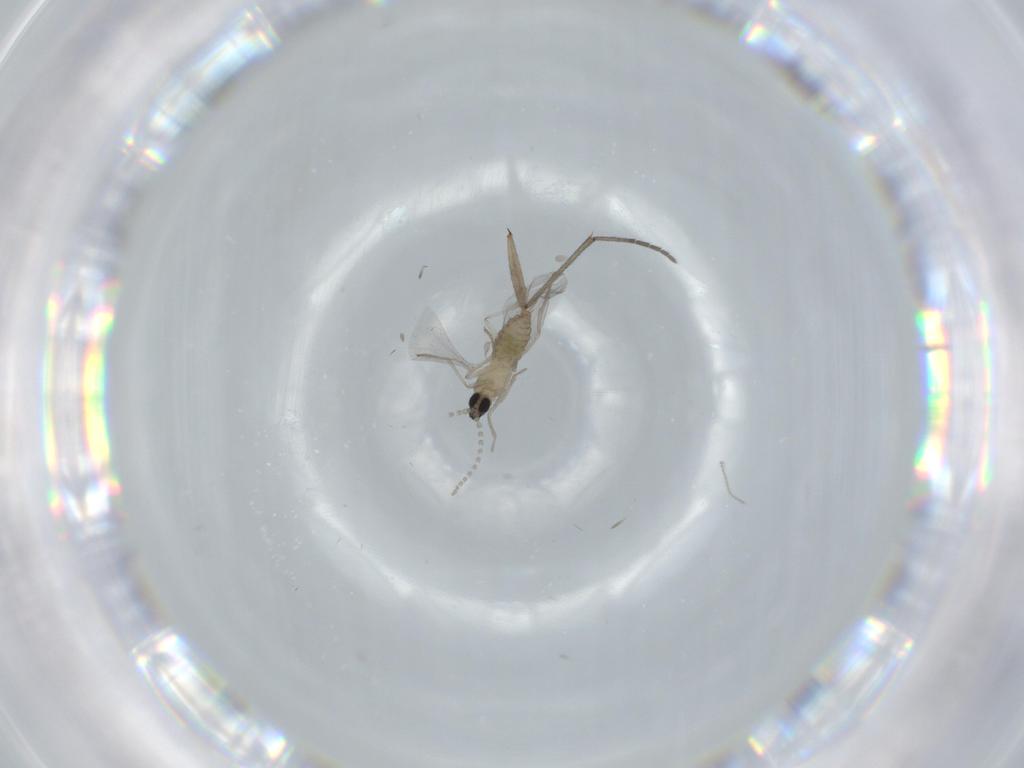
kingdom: Animalia
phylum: Arthropoda
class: Insecta
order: Diptera
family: Cecidomyiidae
